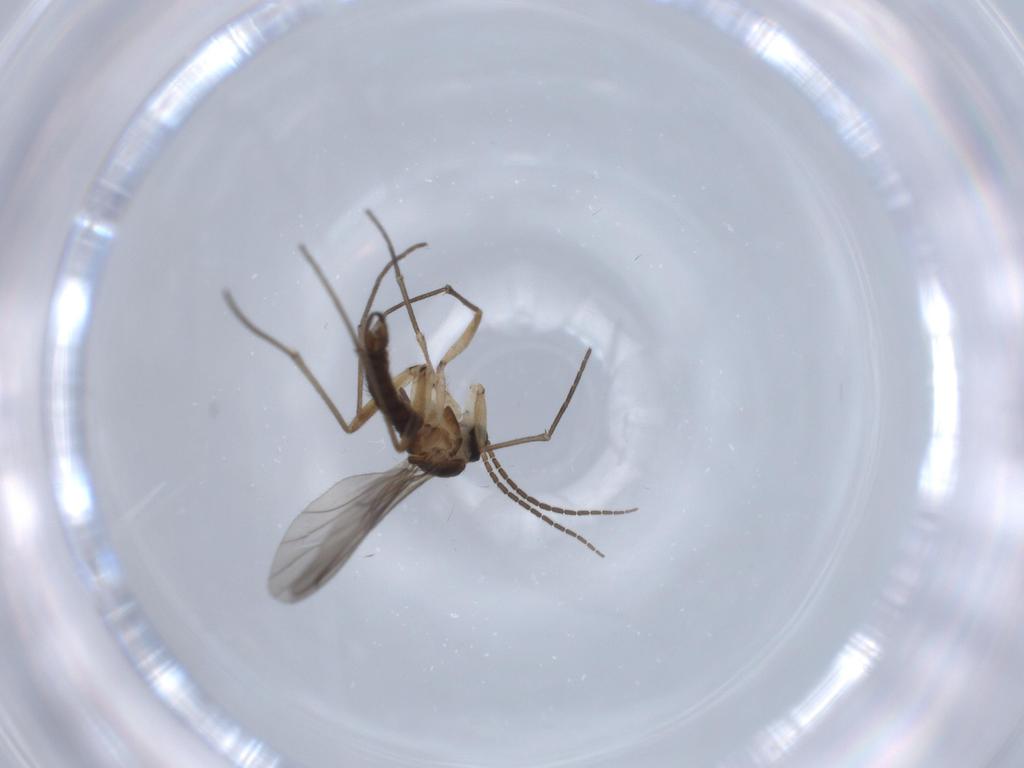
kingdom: Animalia
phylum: Arthropoda
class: Insecta
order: Diptera
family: Sciaridae
